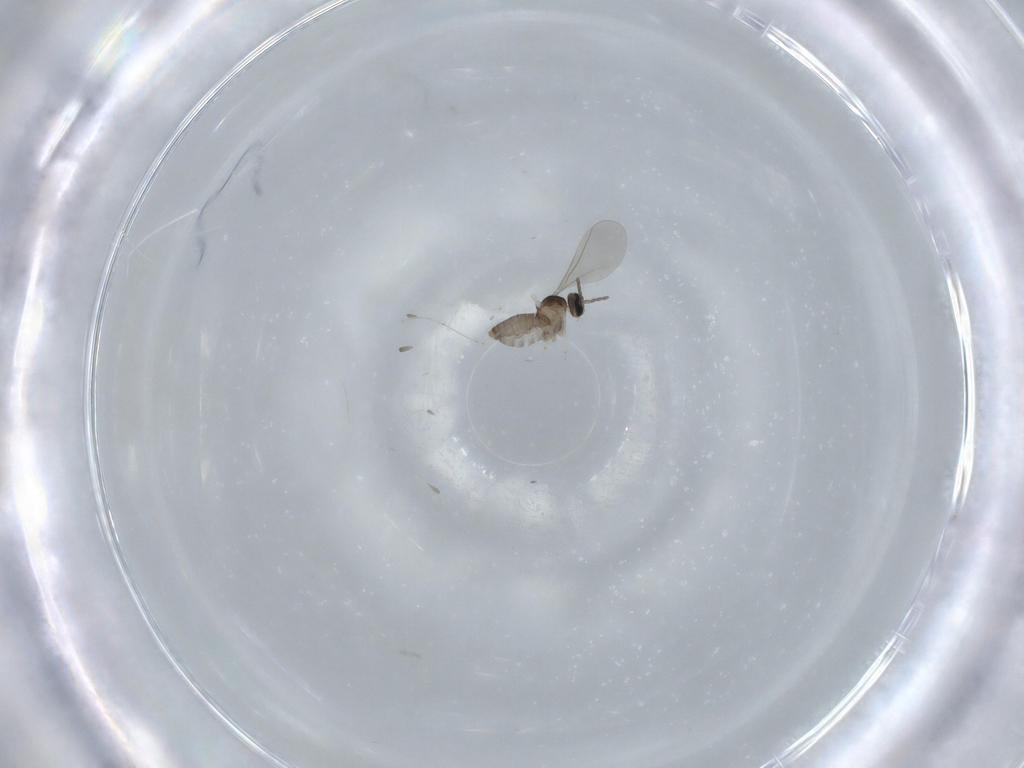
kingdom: Animalia
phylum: Arthropoda
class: Insecta
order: Diptera
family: Cecidomyiidae
